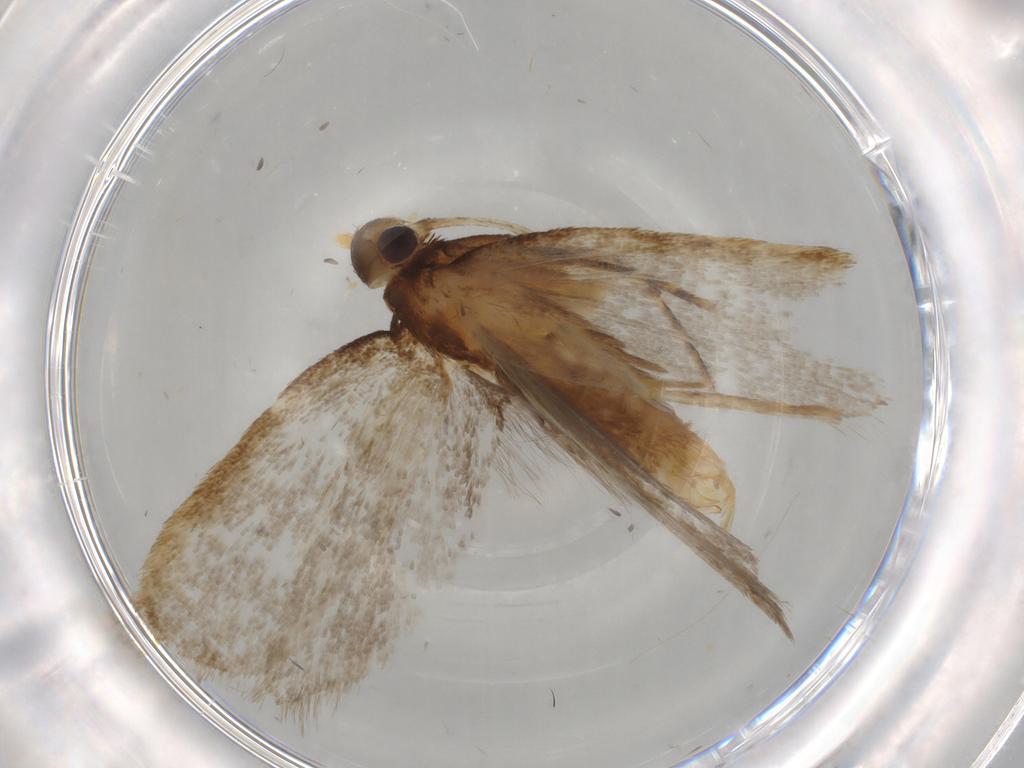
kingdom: Animalia
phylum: Arthropoda
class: Insecta
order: Lepidoptera
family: Lecithoceridae
